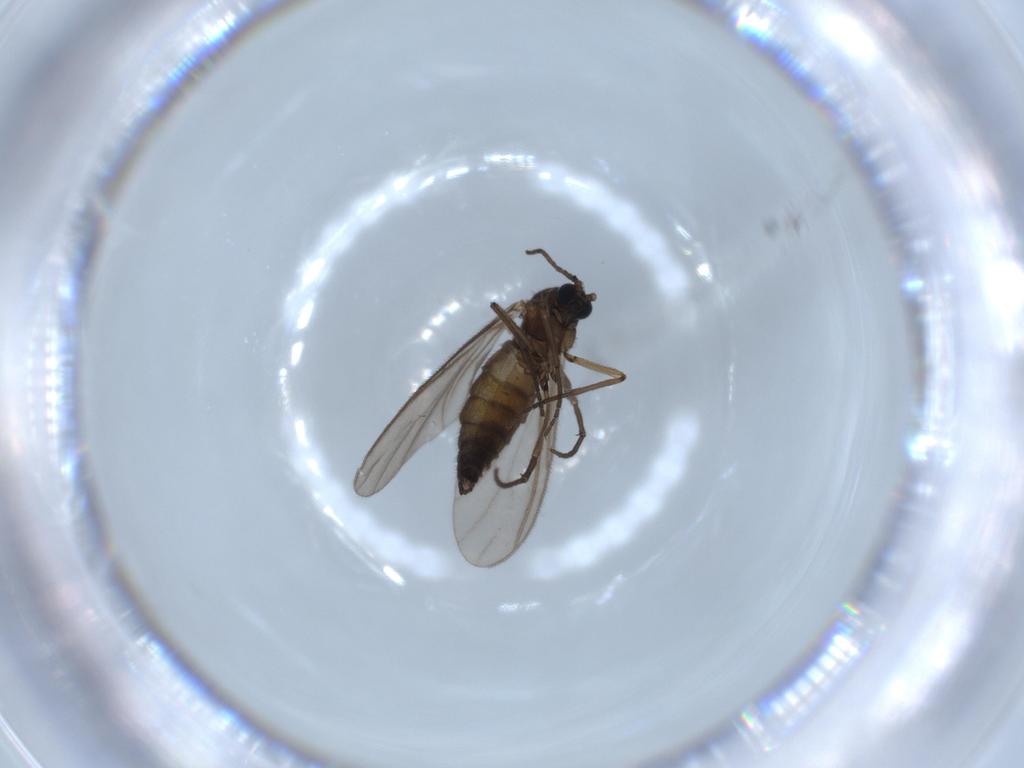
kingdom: Animalia
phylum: Arthropoda
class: Insecta
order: Diptera
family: Sciaridae
